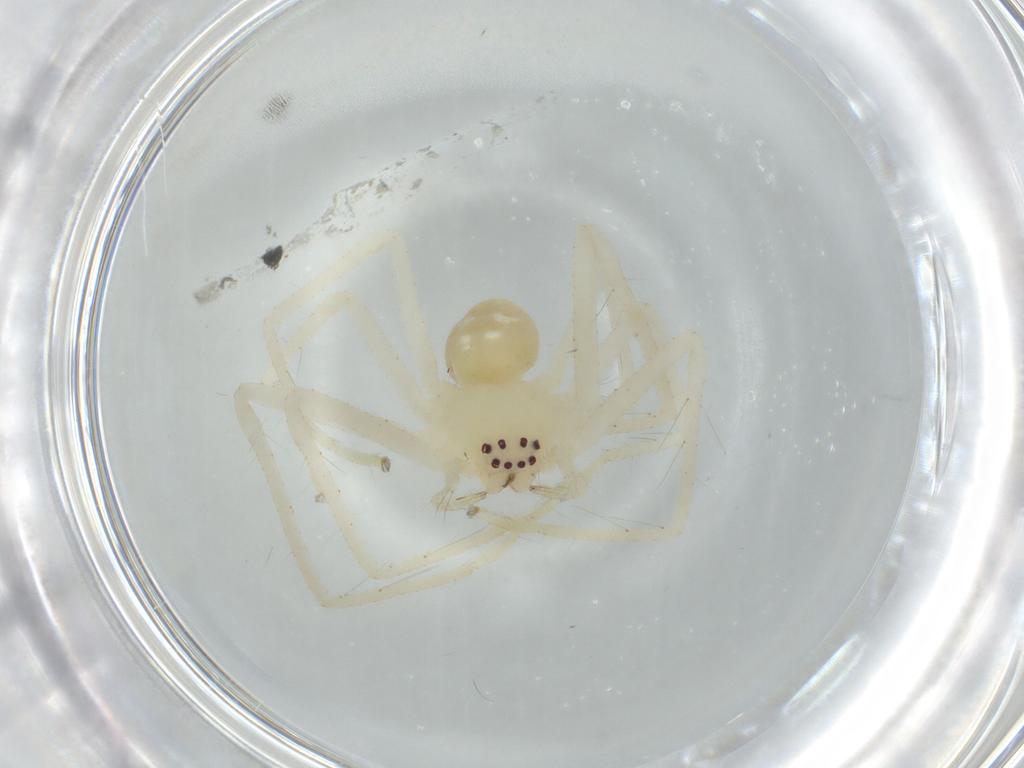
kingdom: Animalia
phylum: Arthropoda
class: Arachnida
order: Araneae
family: Sparassidae
